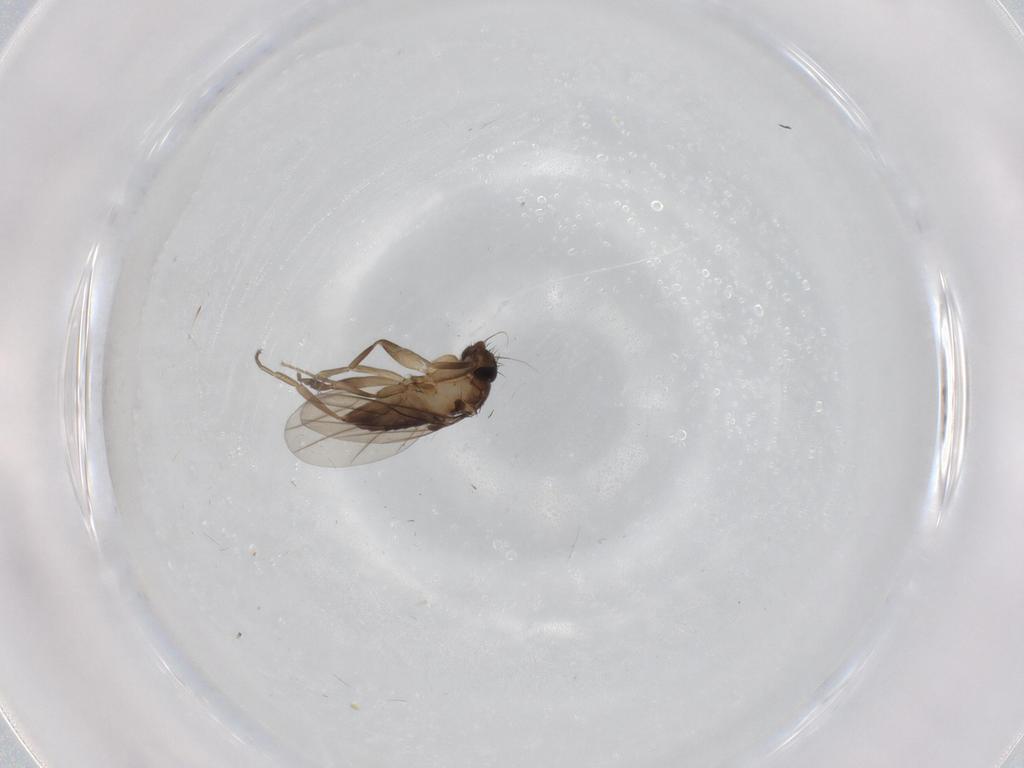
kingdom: Animalia
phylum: Arthropoda
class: Insecta
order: Diptera
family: Phoridae
